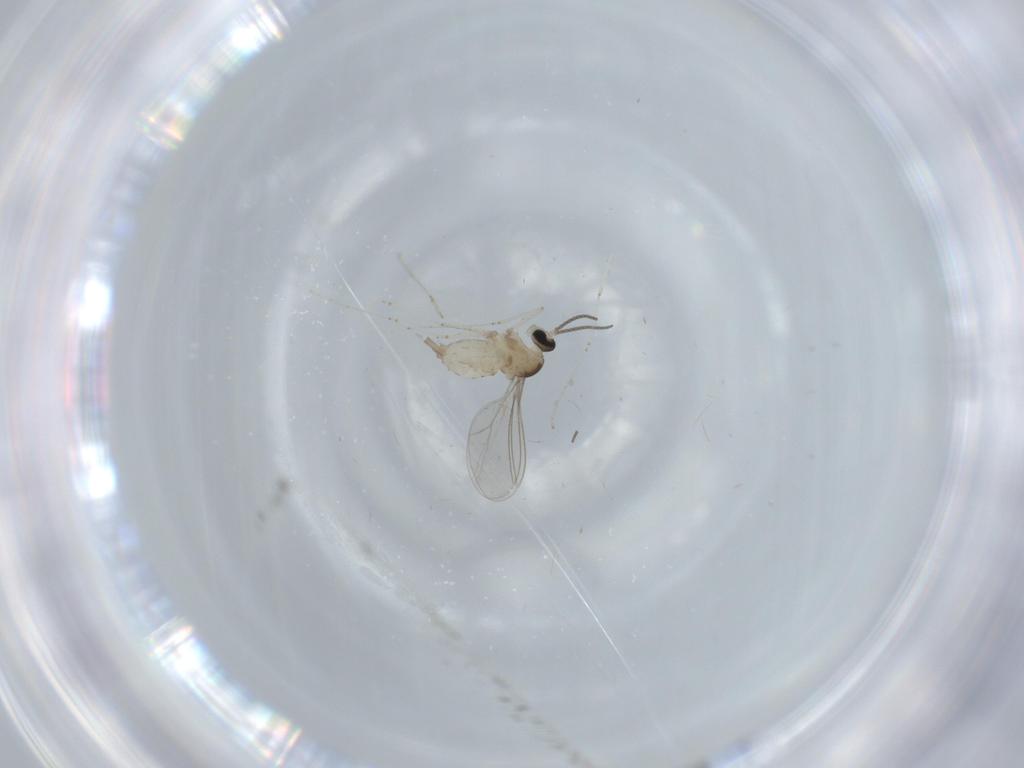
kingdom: Animalia
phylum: Arthropoda
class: Insecta
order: Diptera
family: Cecidomyiidae
